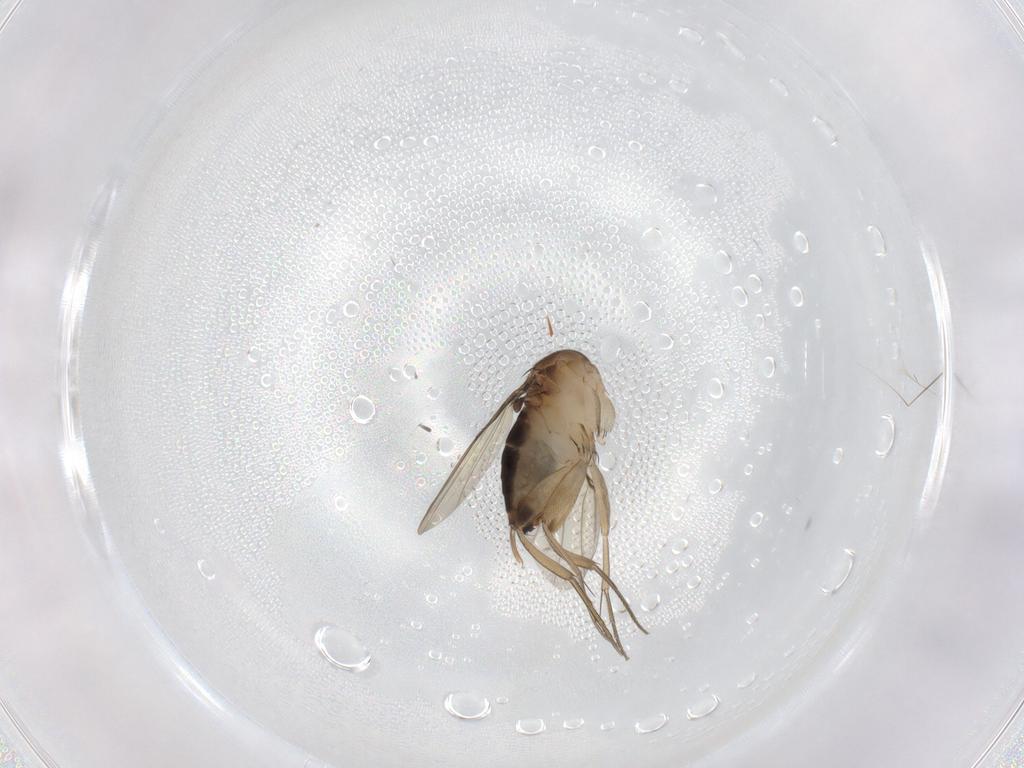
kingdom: Animalia
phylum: Arthropoda
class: Insecta
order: Diptera
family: Phoridae
